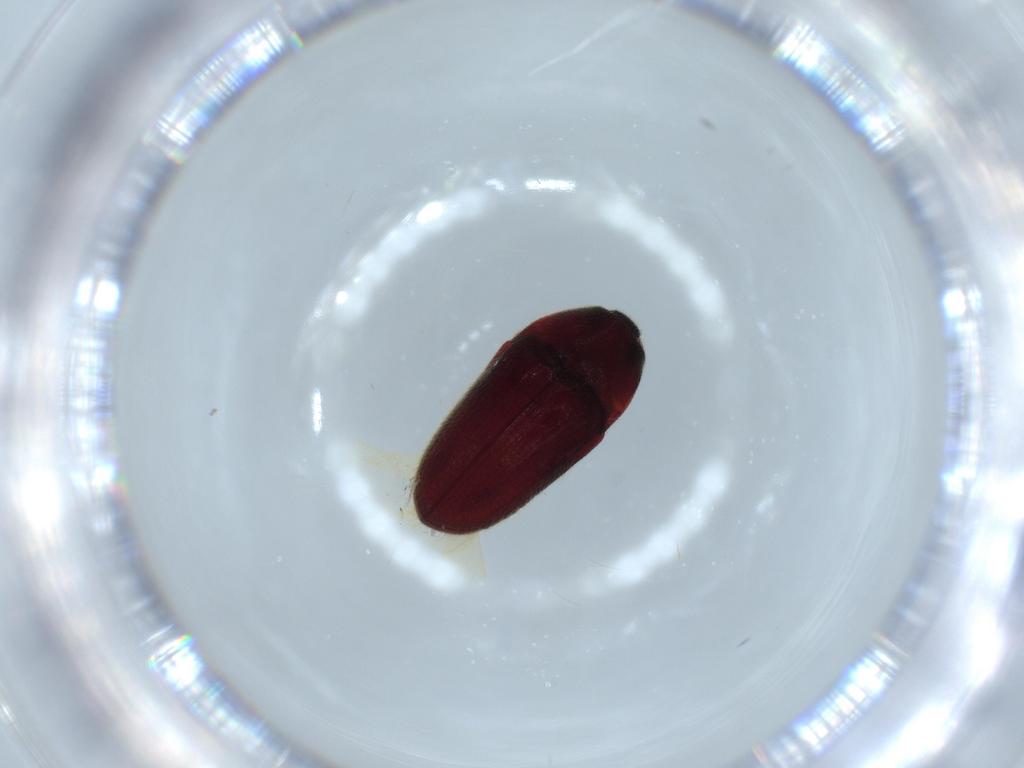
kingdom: Animalia
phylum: Arthropoda
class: Insecta
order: Coleoptera
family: Throscidae
